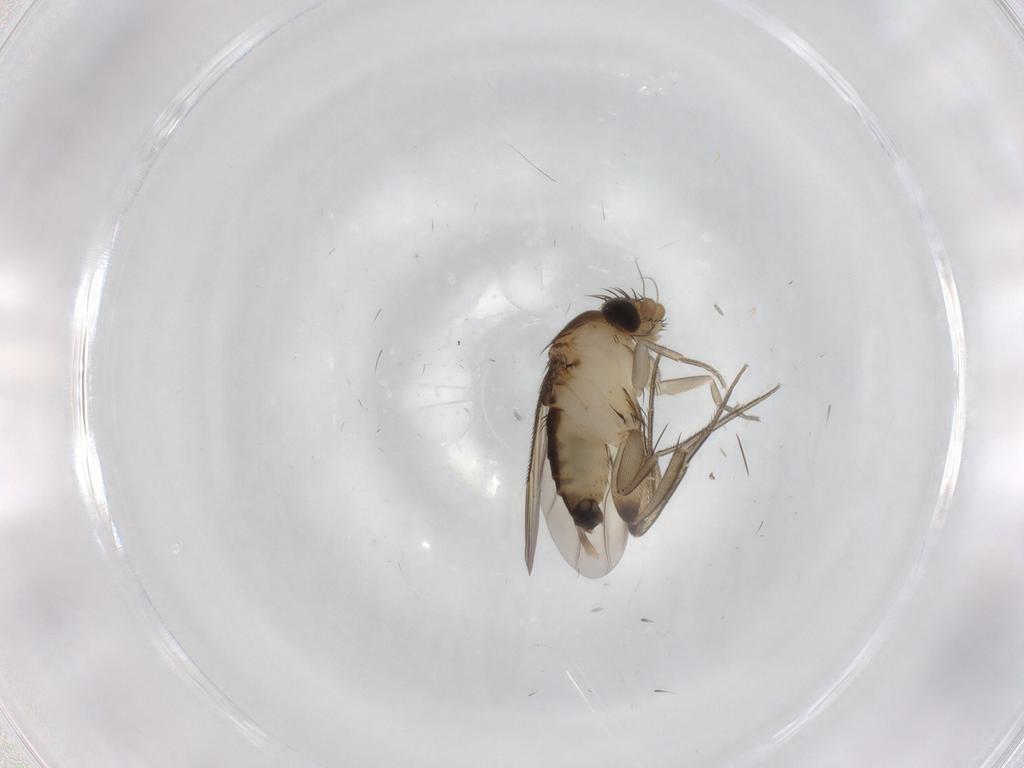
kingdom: Animalia
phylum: Arthropoda
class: Insecta
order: Diptera
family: Phoridae
